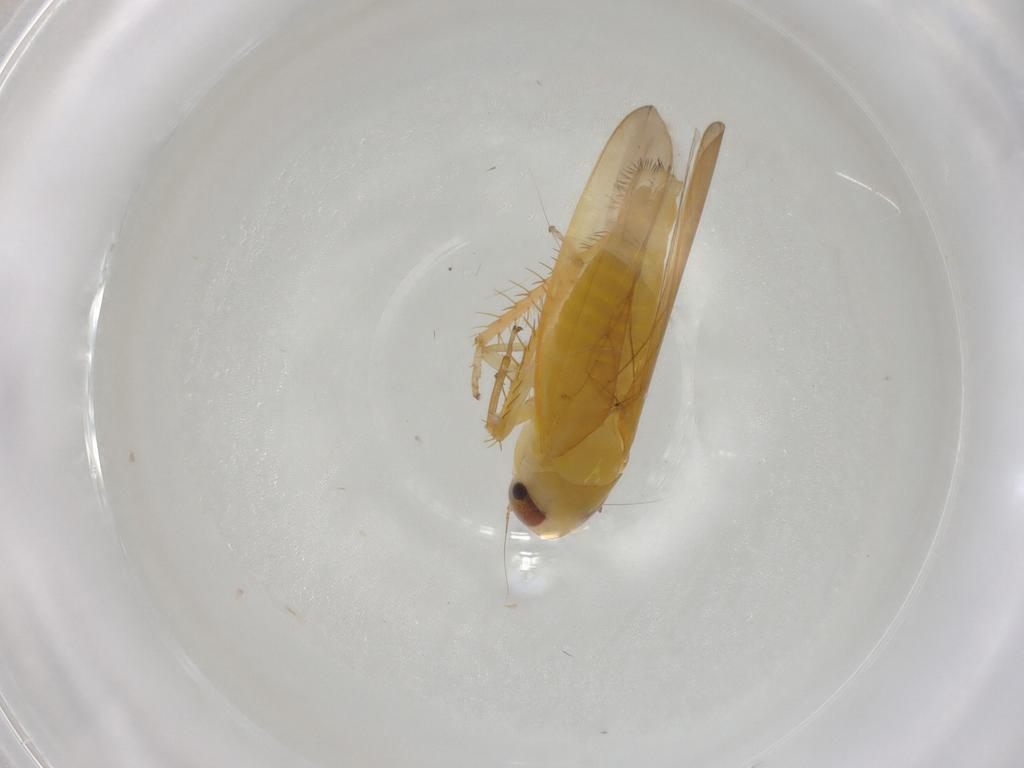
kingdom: Animalia
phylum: Arthropoda
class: Insecta
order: Hemiptera
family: Cicadellidae
